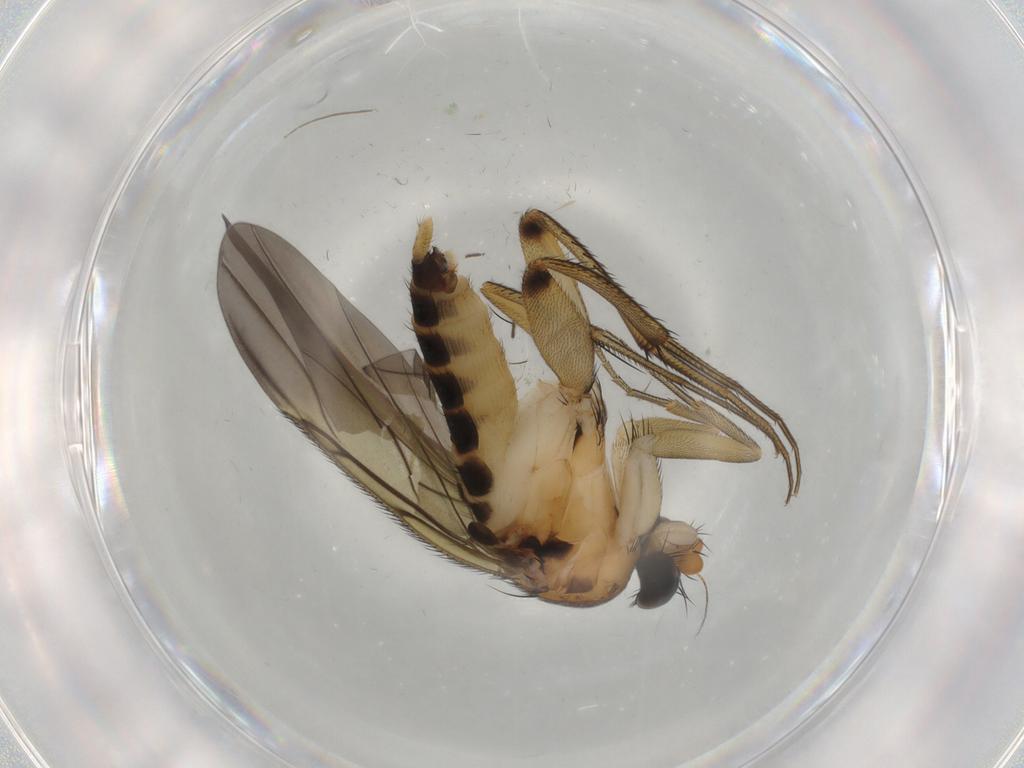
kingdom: Animalia
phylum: Arthropoda
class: Insecta
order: Diptera
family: Phoridae
